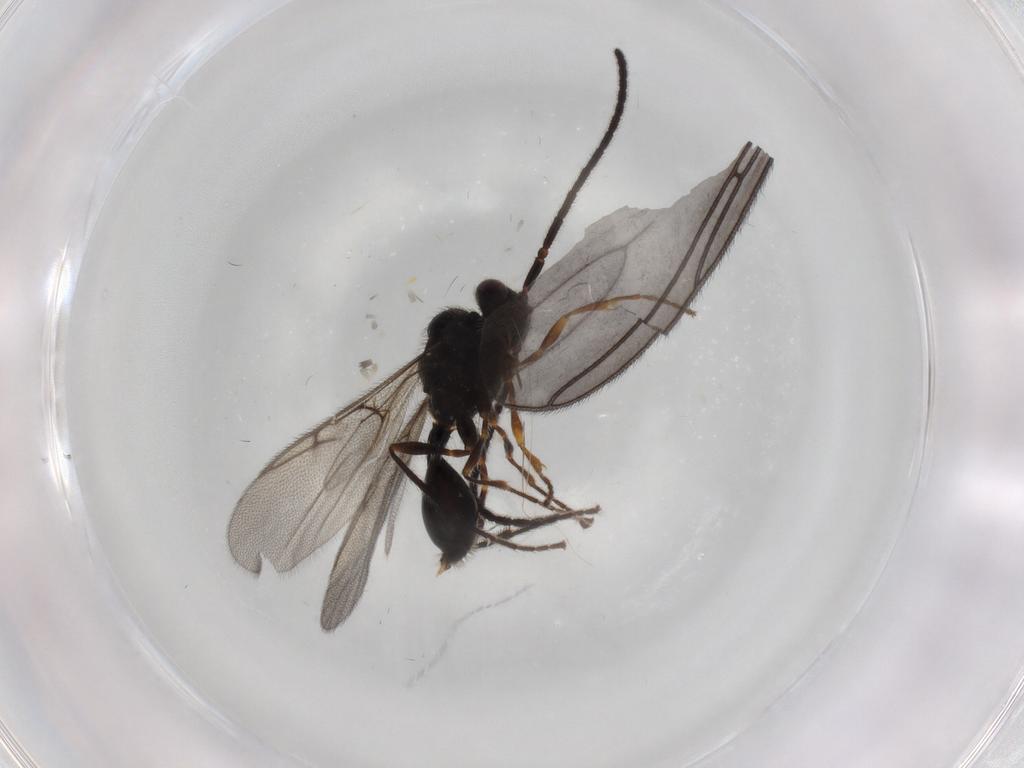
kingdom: Animalia
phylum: Arthropoda
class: Insecta
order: Hymenoptera
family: Diapriidae
